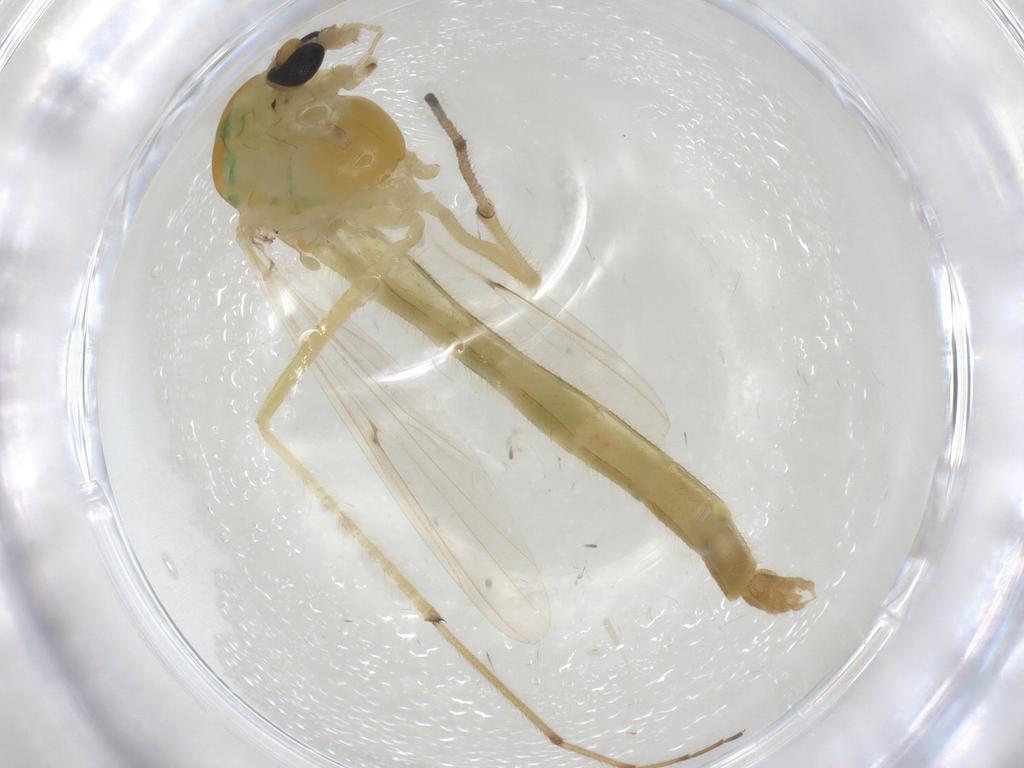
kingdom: Animalia
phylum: Arthropoda
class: Insecta
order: Diptera
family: Chironomidae
